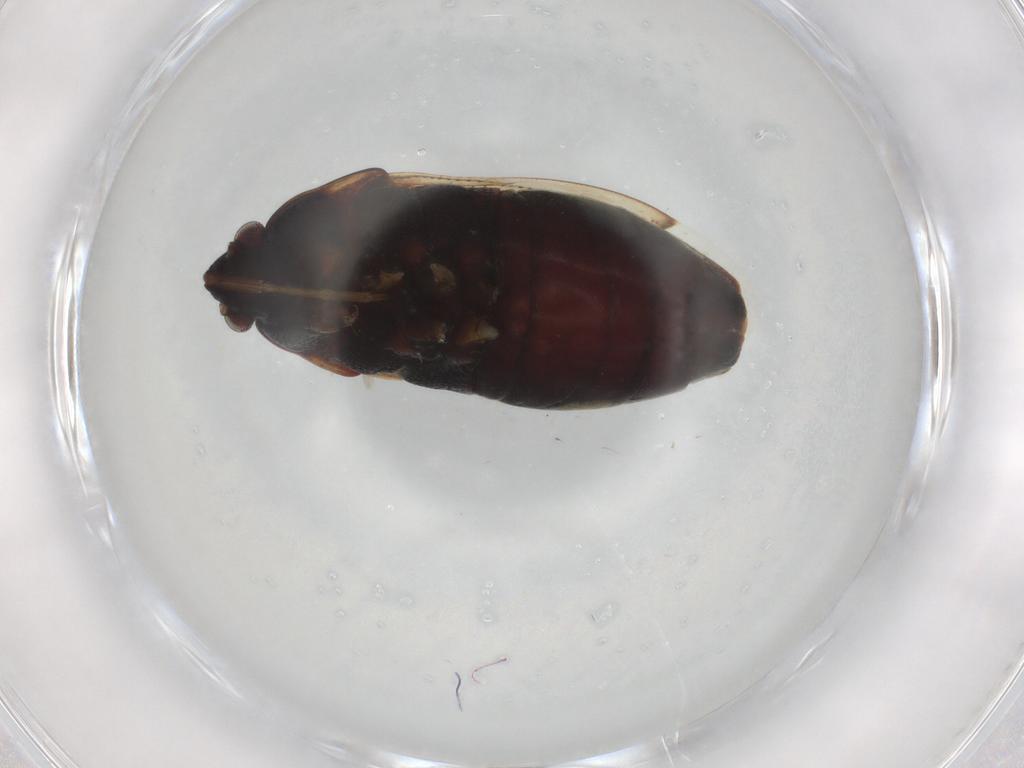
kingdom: Animalia
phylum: Arthropoda
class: Insecta
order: Hemiptera
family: Rhyparochromidae
